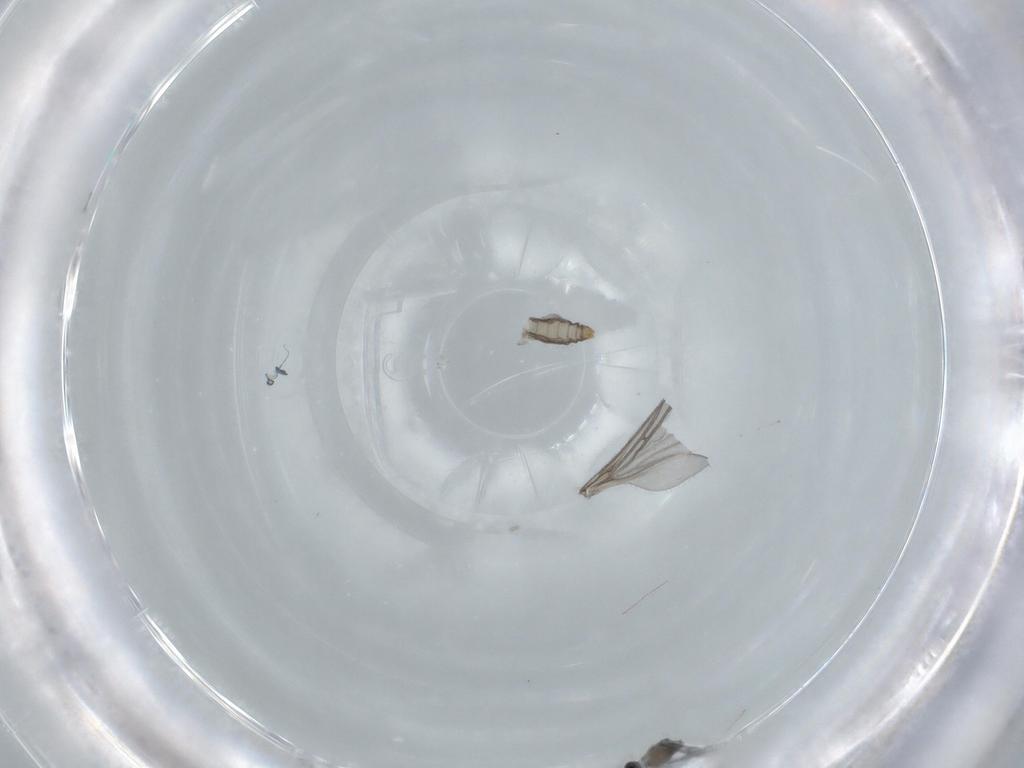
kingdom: Animalia
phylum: Arthropoda
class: Insecta
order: Diptera
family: Cecidomyiidae
